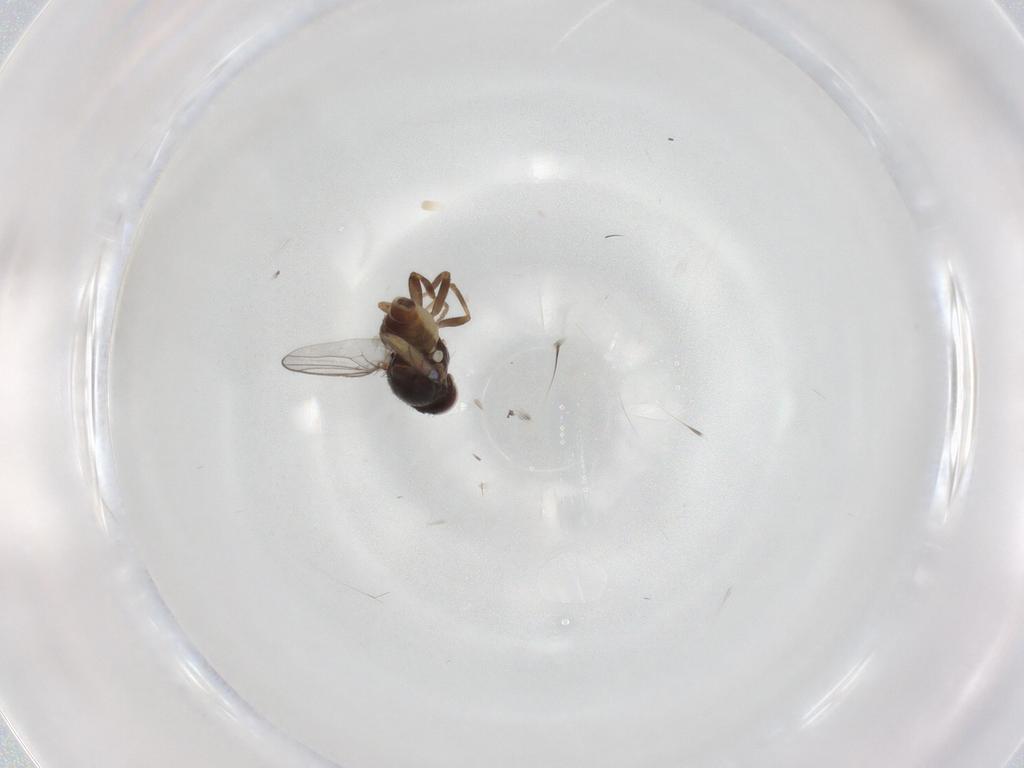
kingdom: Animalia
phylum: Arthropoda
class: Insecta
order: Diptera
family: Chloropidae
